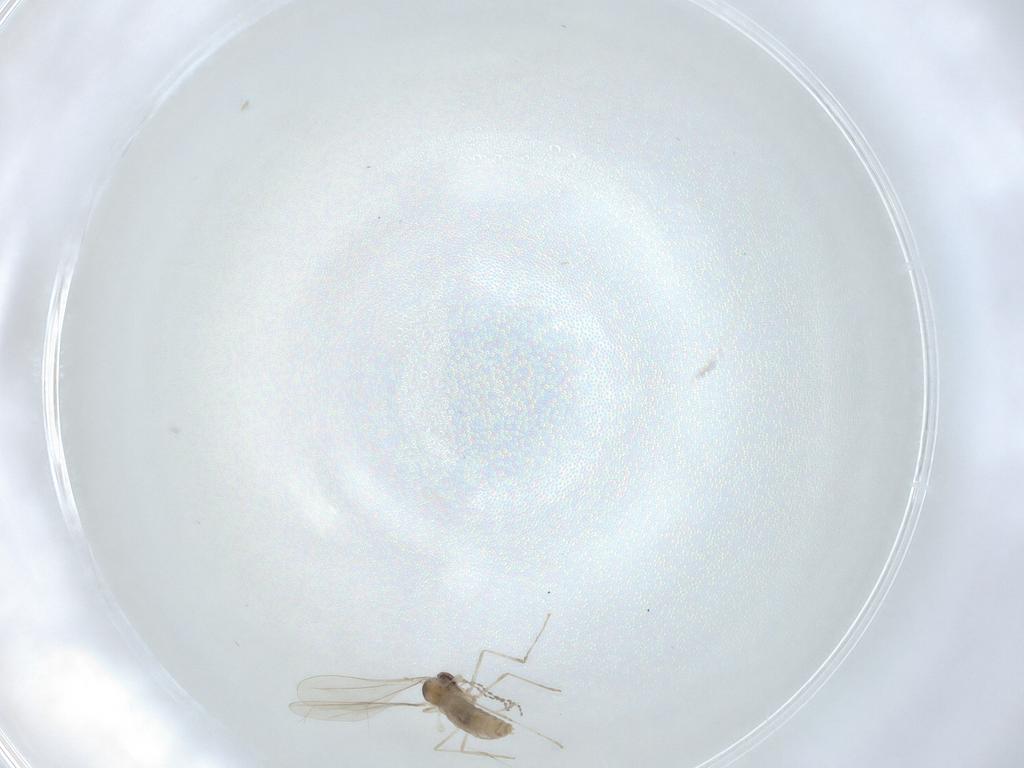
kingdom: Animalia
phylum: Arthropoda
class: Insecta
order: Diptera
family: Cecidomyiidae
